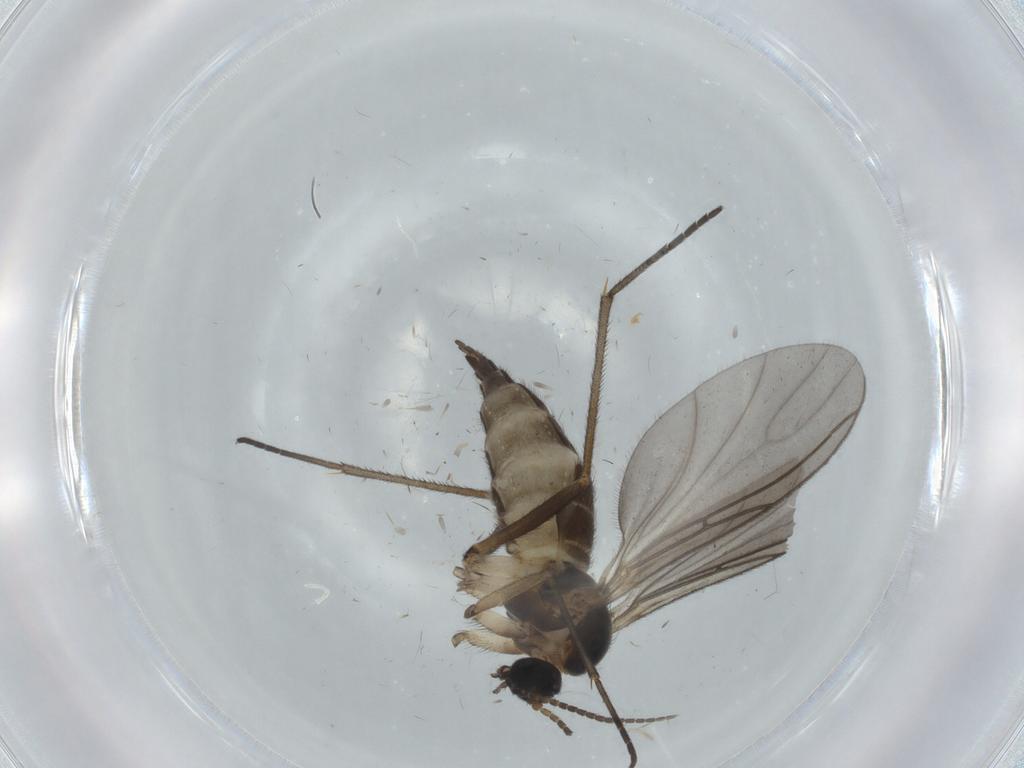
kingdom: Animalia
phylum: Arthropoda
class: Insecta
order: Diptera
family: Sciaridae
